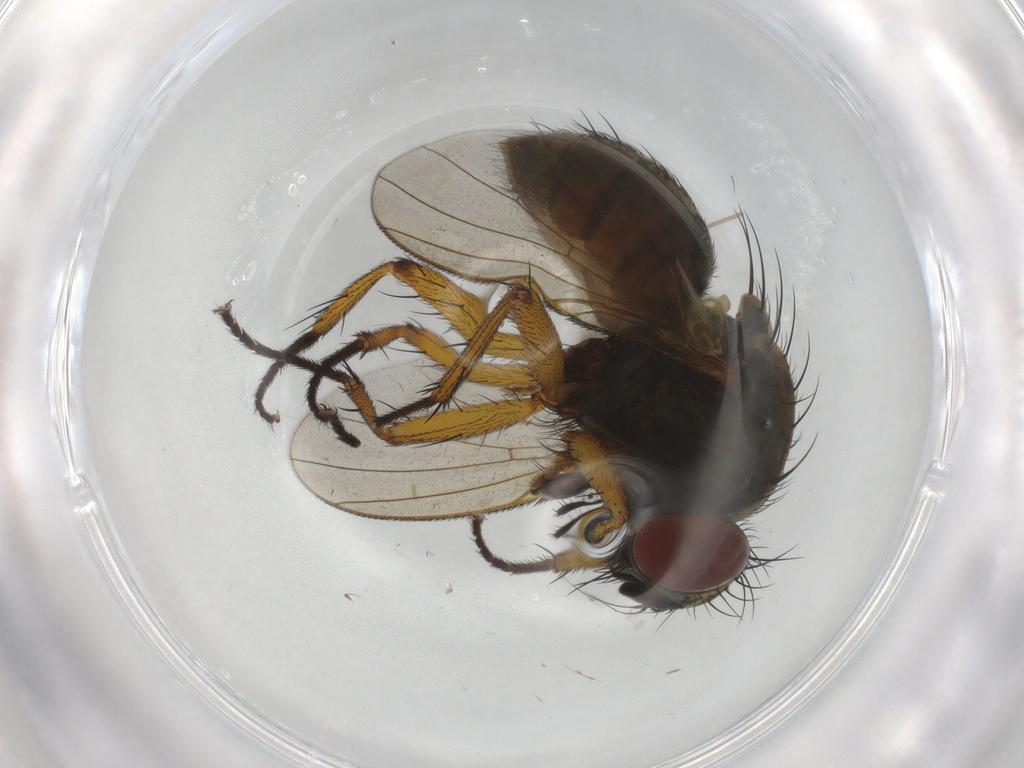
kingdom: Animalia
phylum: Arthropoda
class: Insecta
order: Diptera
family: Muscidae
